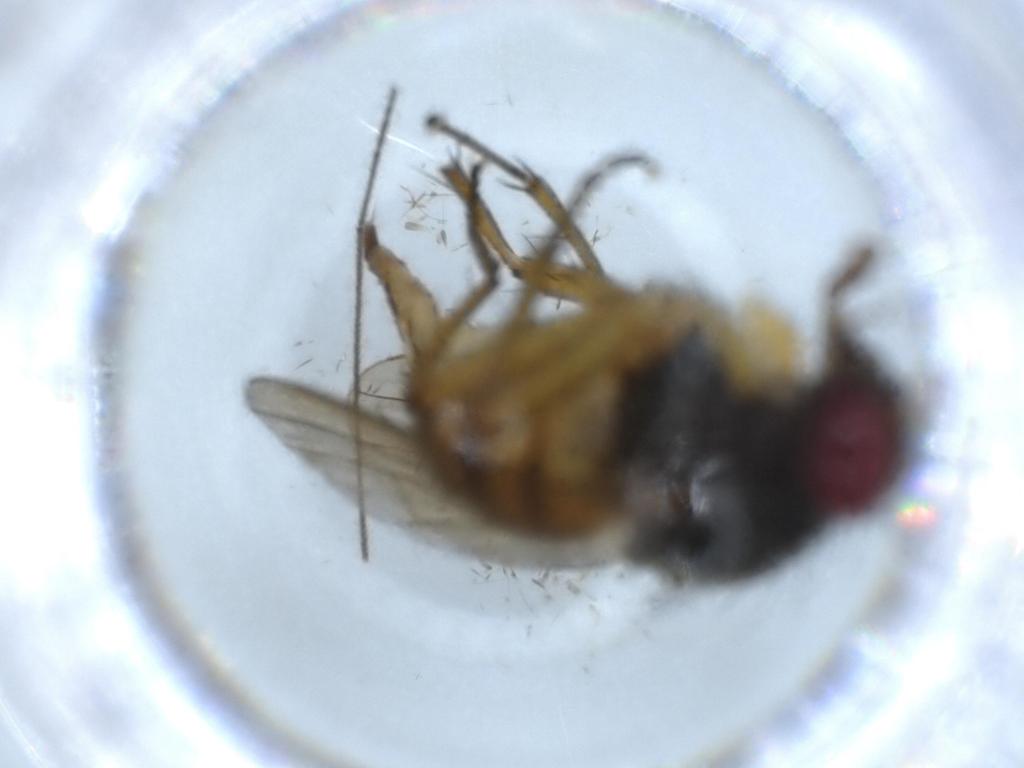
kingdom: Animalia
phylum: Arthropoda
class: Insecta
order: Diptera
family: Muscidae
